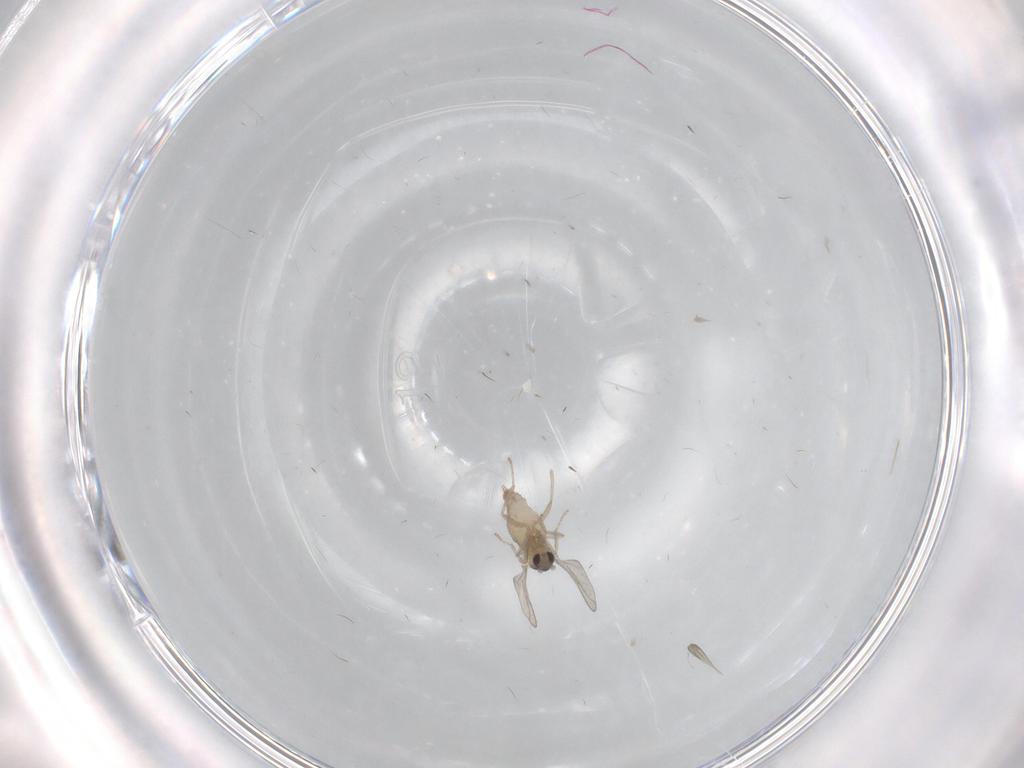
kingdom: Animalia
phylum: Arthropoda
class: Insecta
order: Diptera
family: Cecidomyiidae
